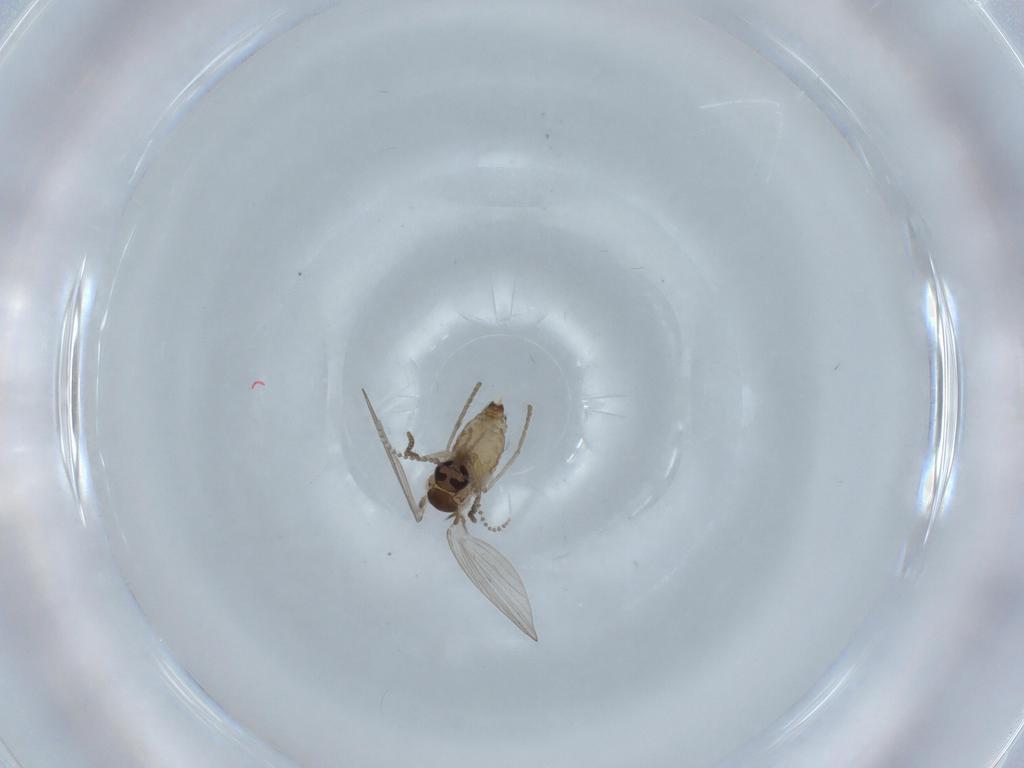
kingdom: Animalia
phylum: Arthropoda
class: Insecta
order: Diptera
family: Psychodidae
